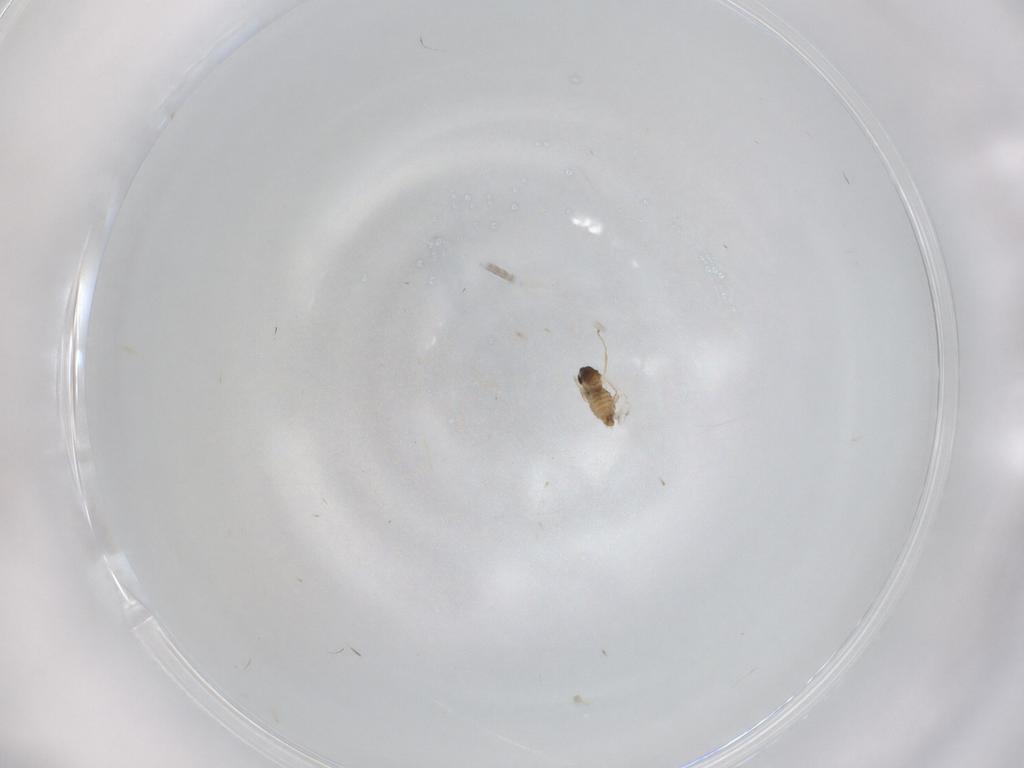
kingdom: Animalia
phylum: Arthropoda
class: Insecta
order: Diptera
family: Cecidomyiidae
